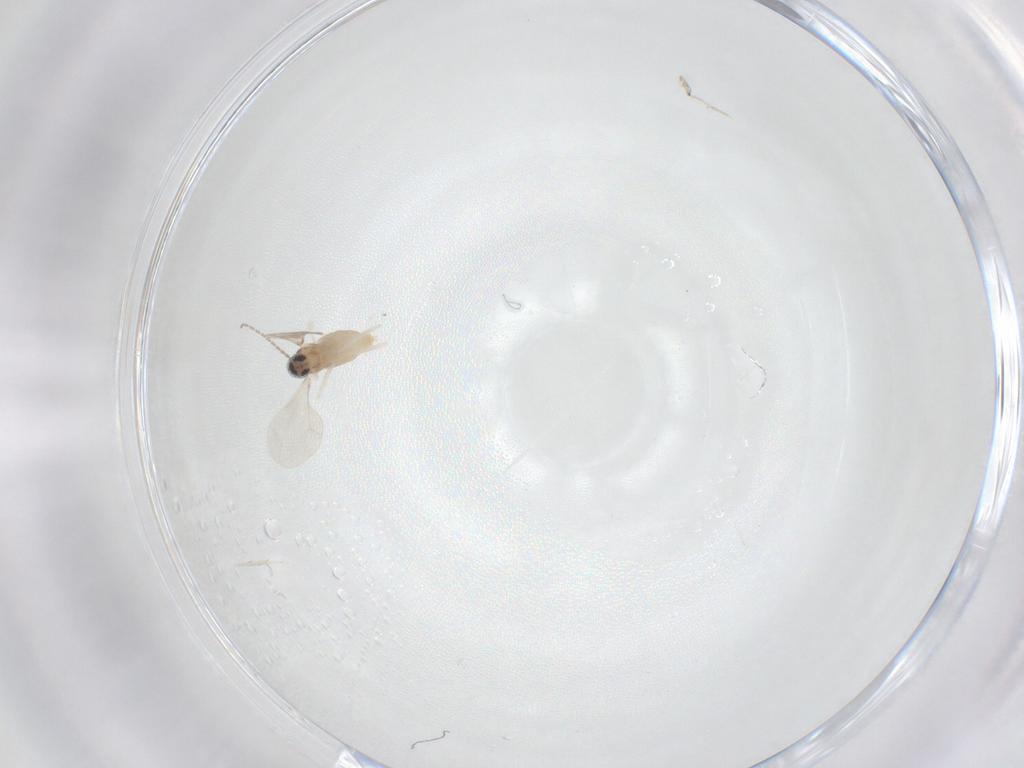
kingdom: Animalia
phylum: Arthropoda
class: Insecta
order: Diptera
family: Cecidomyiidae
